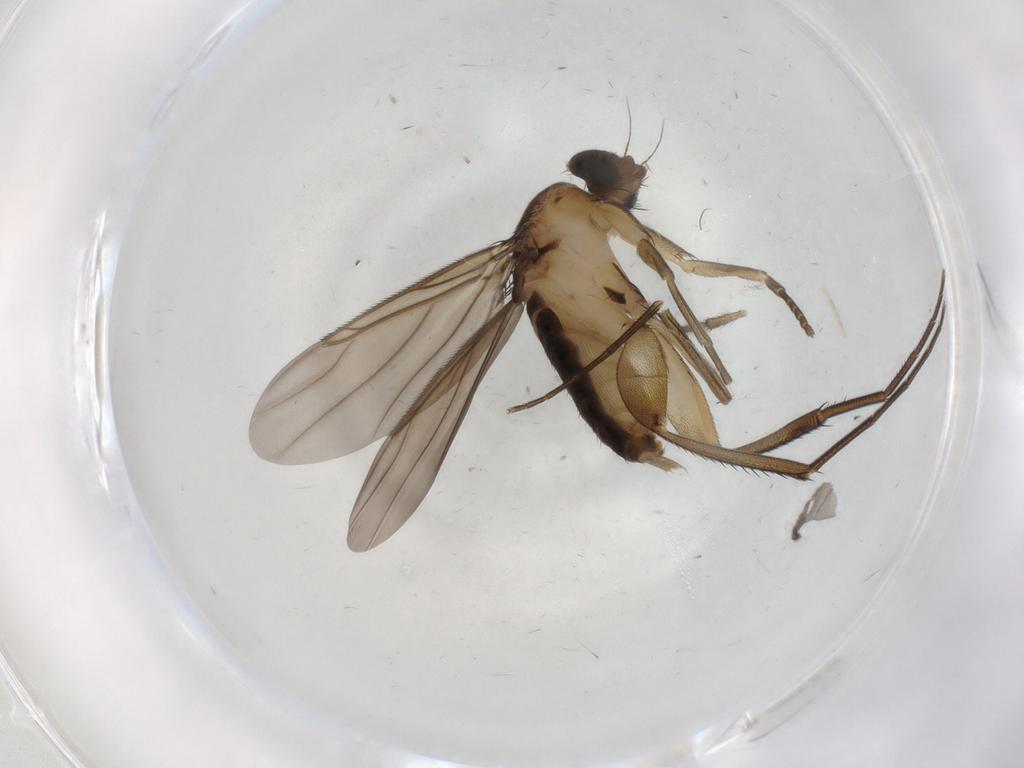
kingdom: Animalia
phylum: Arthropoda
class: Insecta
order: Diptera
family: Phoridae
